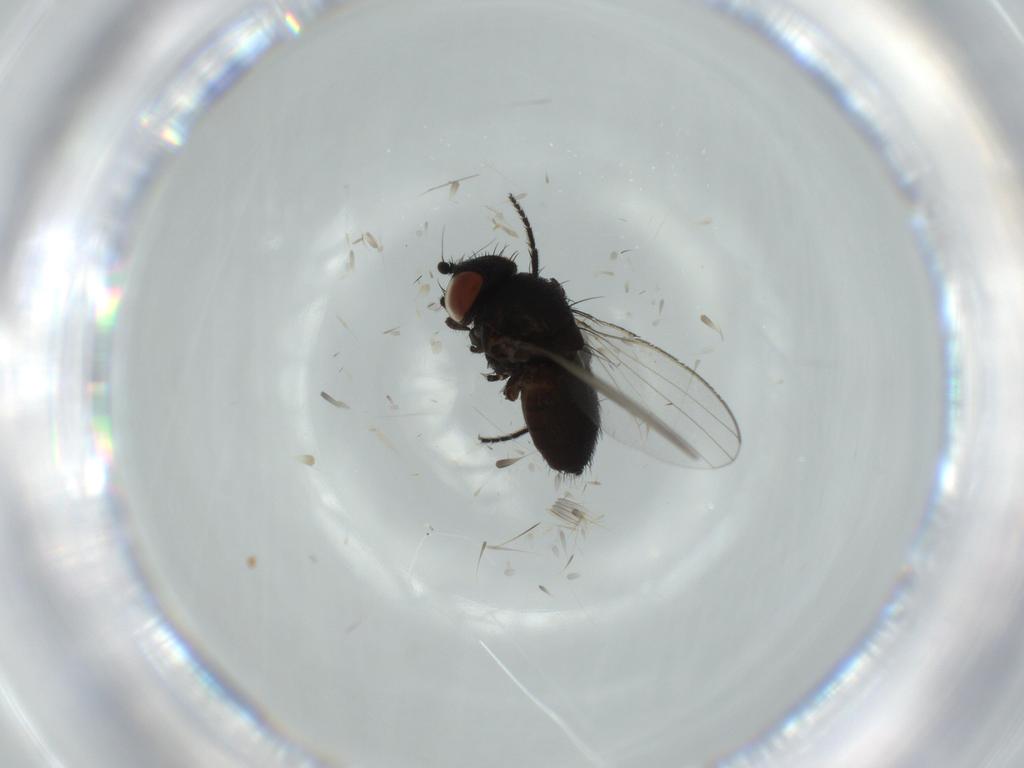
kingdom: Animalia
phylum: Arthropoda
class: Insecta
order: Diptera
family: Milichiidae
